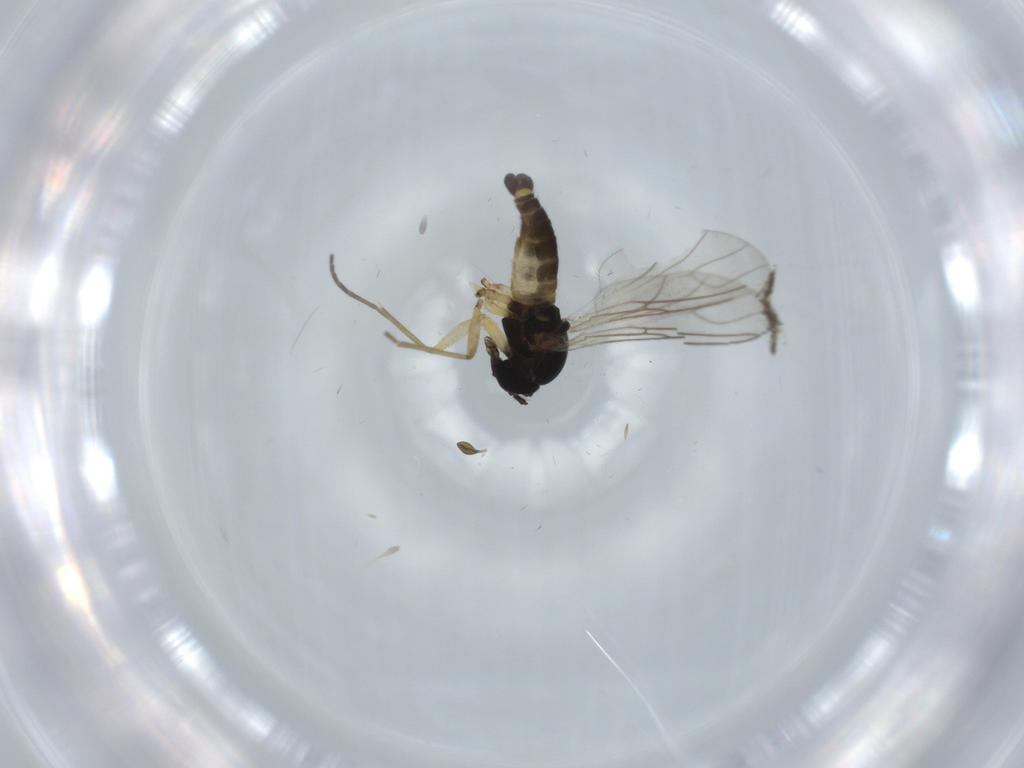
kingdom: Animalia
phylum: Arthropoda
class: Insecta
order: Diptera
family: Sciaridae
